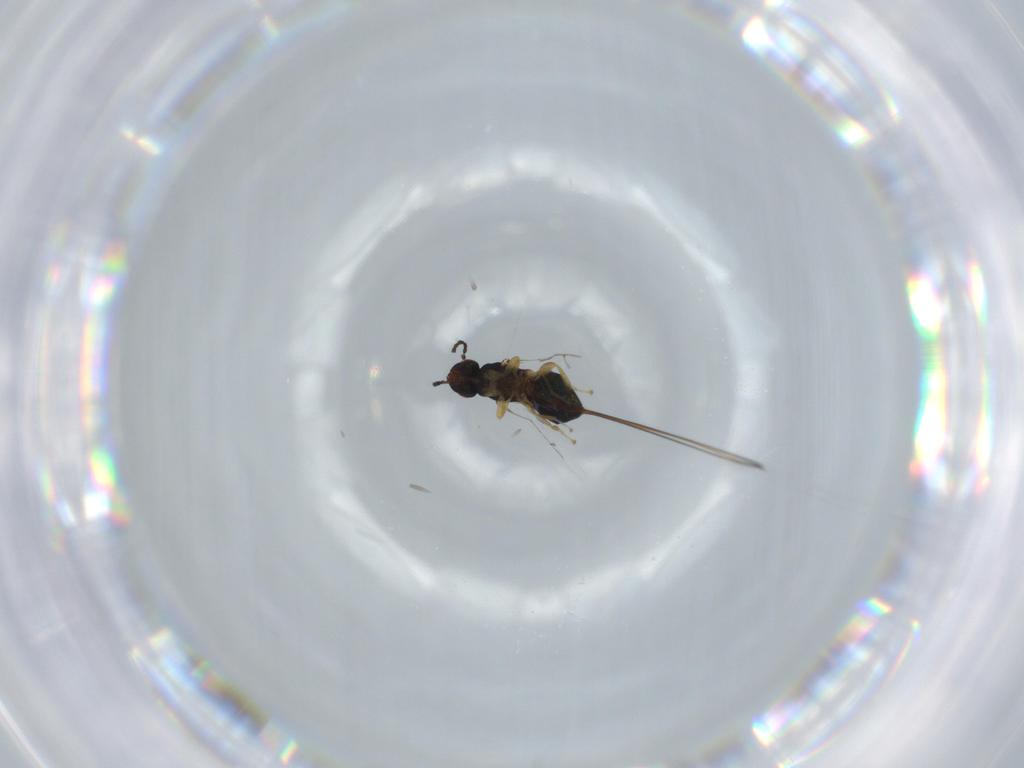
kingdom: Animalia
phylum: Arthropoda
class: Insecta
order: Hymenoptera
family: Agaonidae
